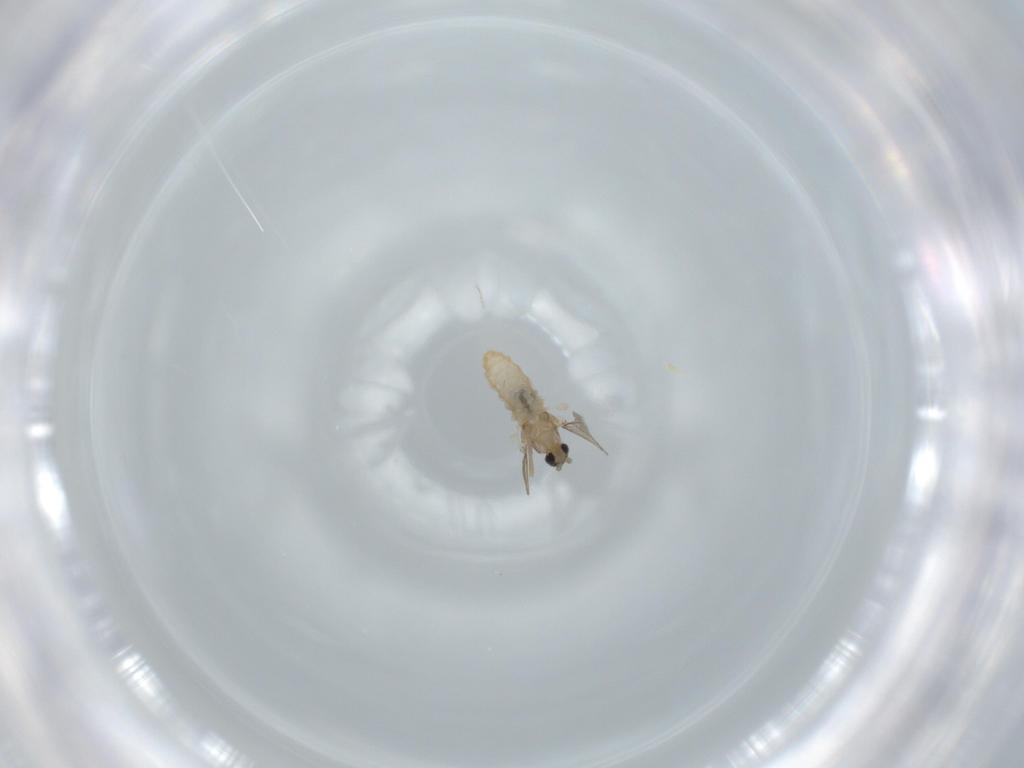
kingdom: Animalia
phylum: Arthropoda
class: Insecta
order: Diptera
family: Cecidomyiidae
